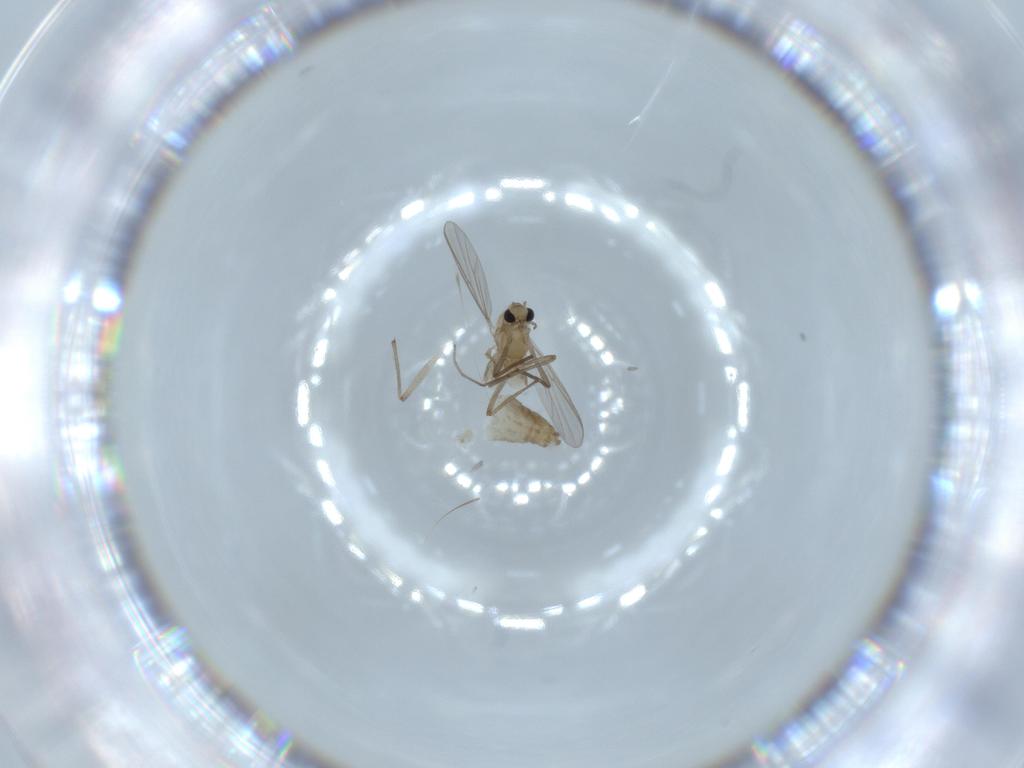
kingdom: Animalia
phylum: Arthropoda
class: Insecta
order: Diptera
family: Chironomidae
